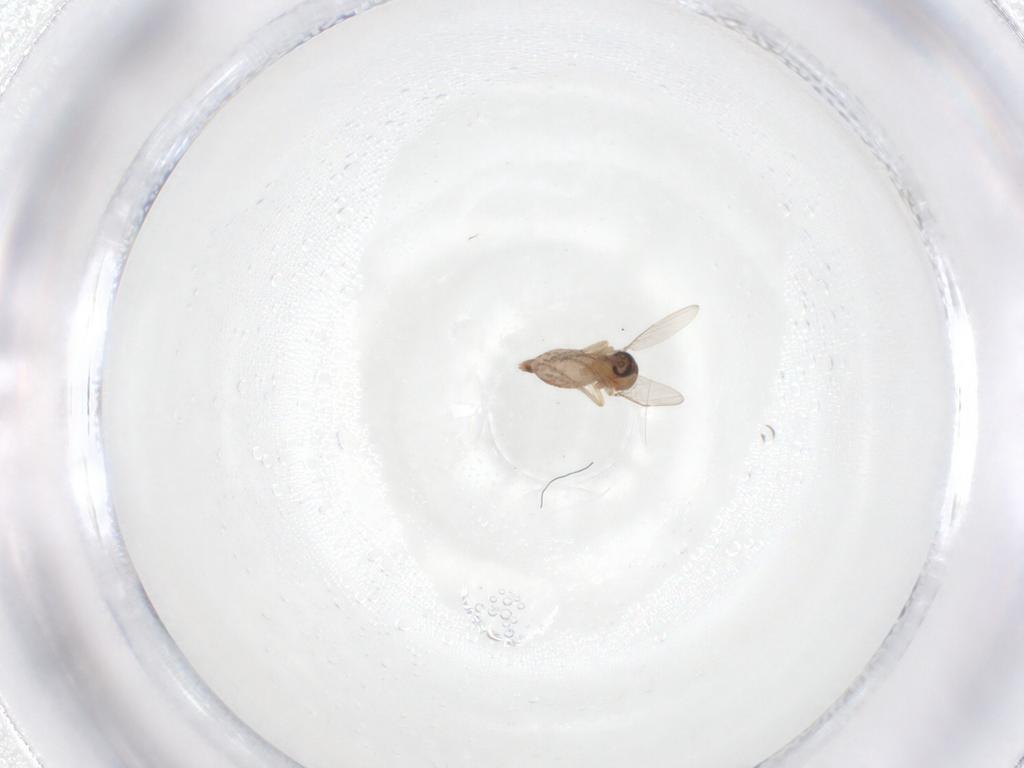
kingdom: Animalia
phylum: Arthropoda
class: Insecta
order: Diptera
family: Ceratopogonidae
